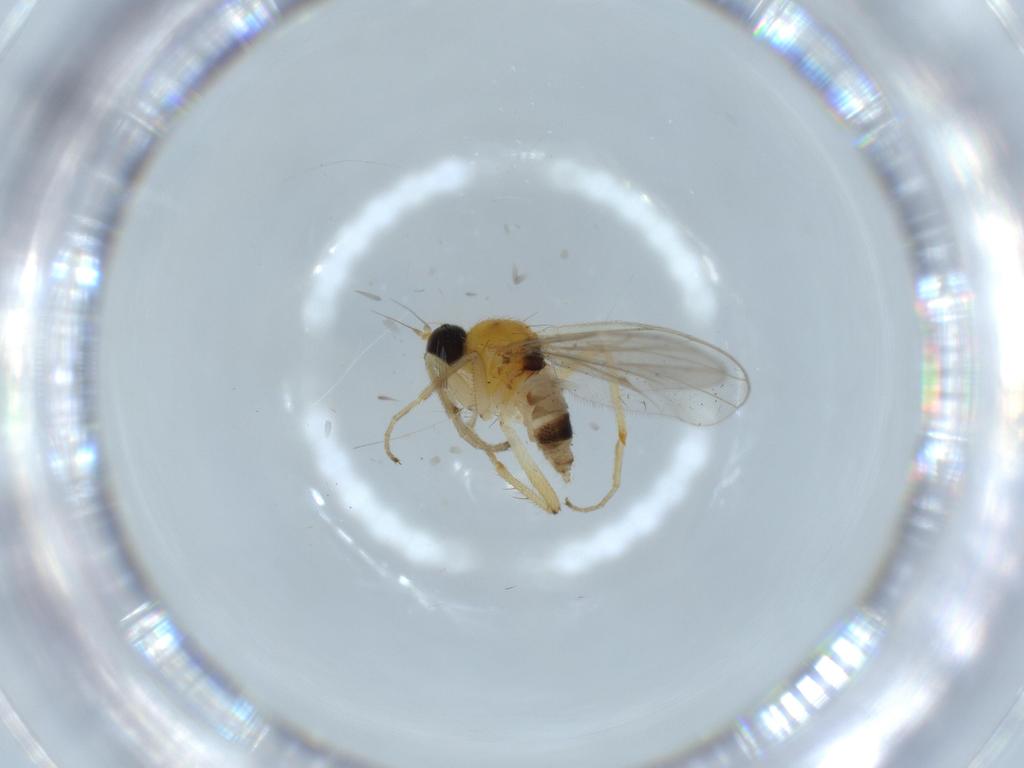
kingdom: Animalia
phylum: Arthropoda
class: Insecta
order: Diptera
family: Hybotidae
